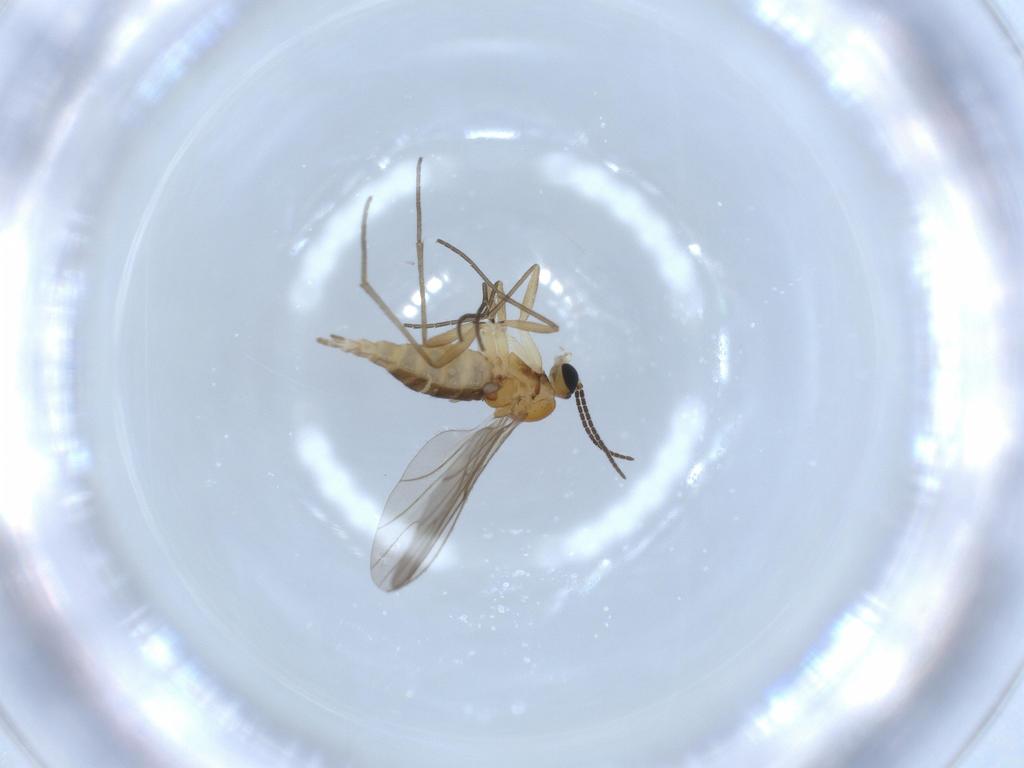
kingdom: Animalia
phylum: Arthropoda
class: Insecta
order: Diptera
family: Sciaridae
